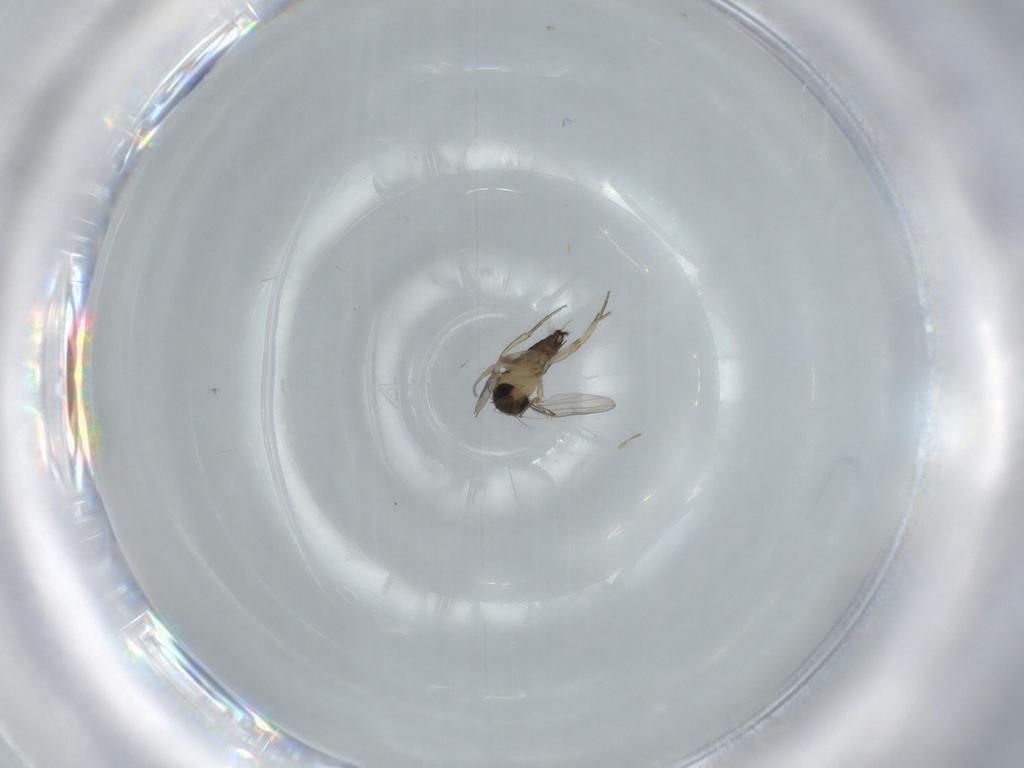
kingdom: Animalia
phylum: Arthropoda
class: Insecta
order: Diptera
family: Phoridae
